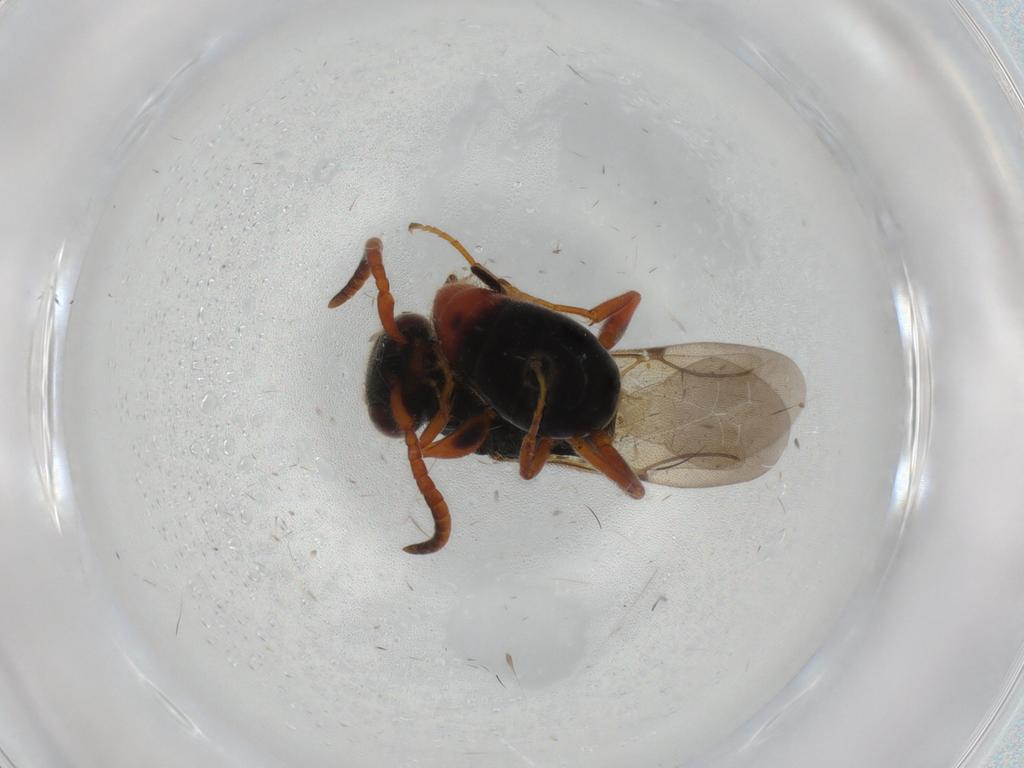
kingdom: Animalia
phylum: Arthropoda
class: Insecta
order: Hymenoptera
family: Bethylidae
